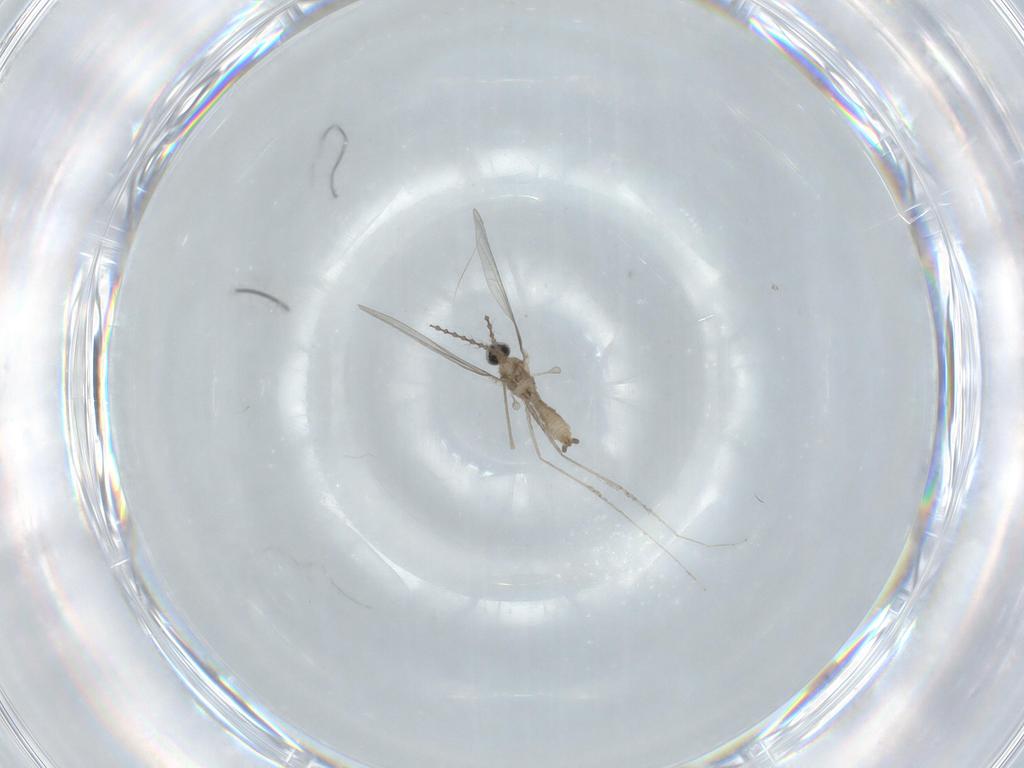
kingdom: Animalia
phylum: Arthropoda
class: Insecta
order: Diptera
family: Cecidomyiidae
